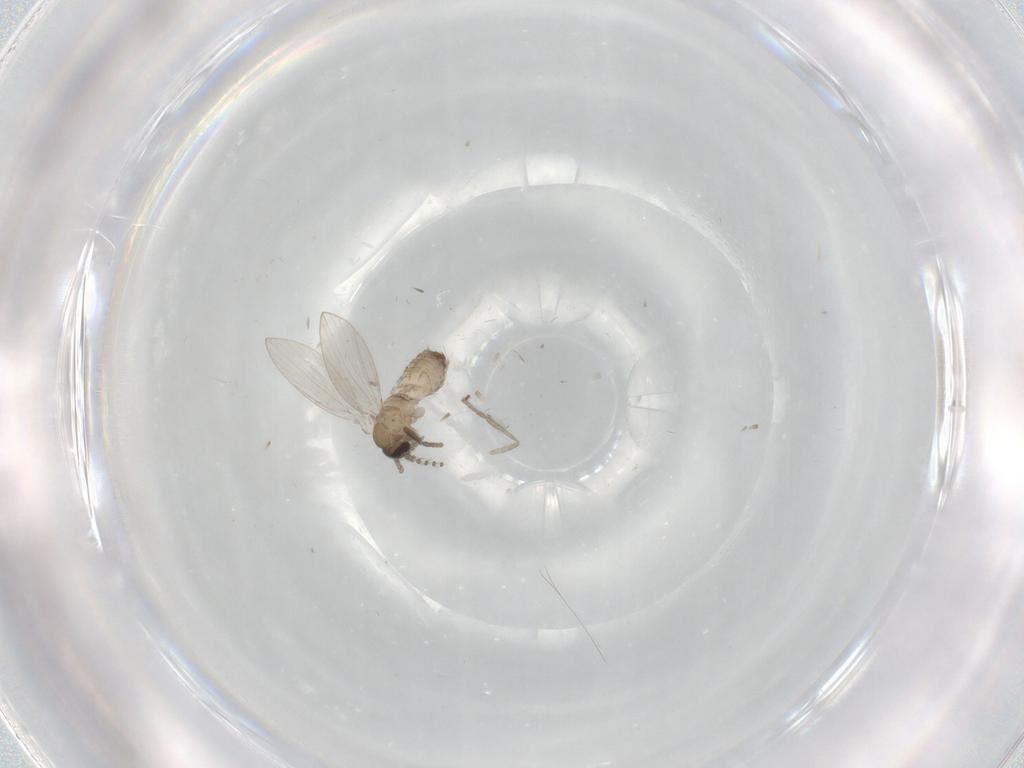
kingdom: Animalia
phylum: Arthropoda
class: Insecta
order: Diptera
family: Psychodidae
